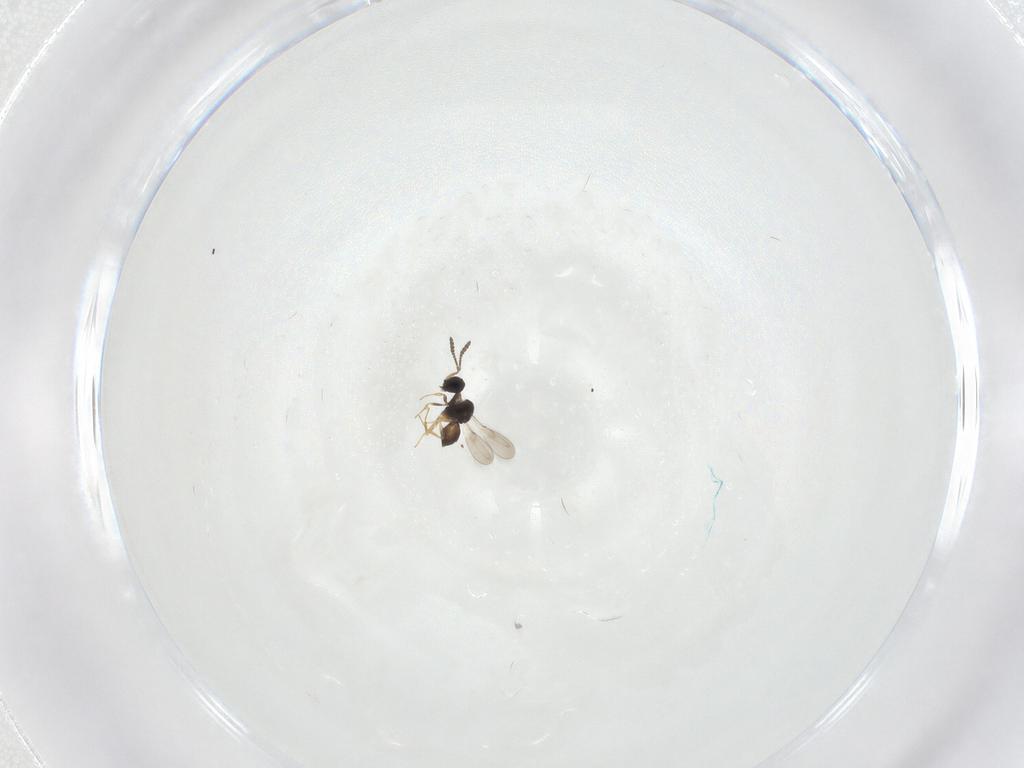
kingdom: Animalia
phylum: Arthropoda
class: Insecta
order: Hymenoptera
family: Scelionidae
